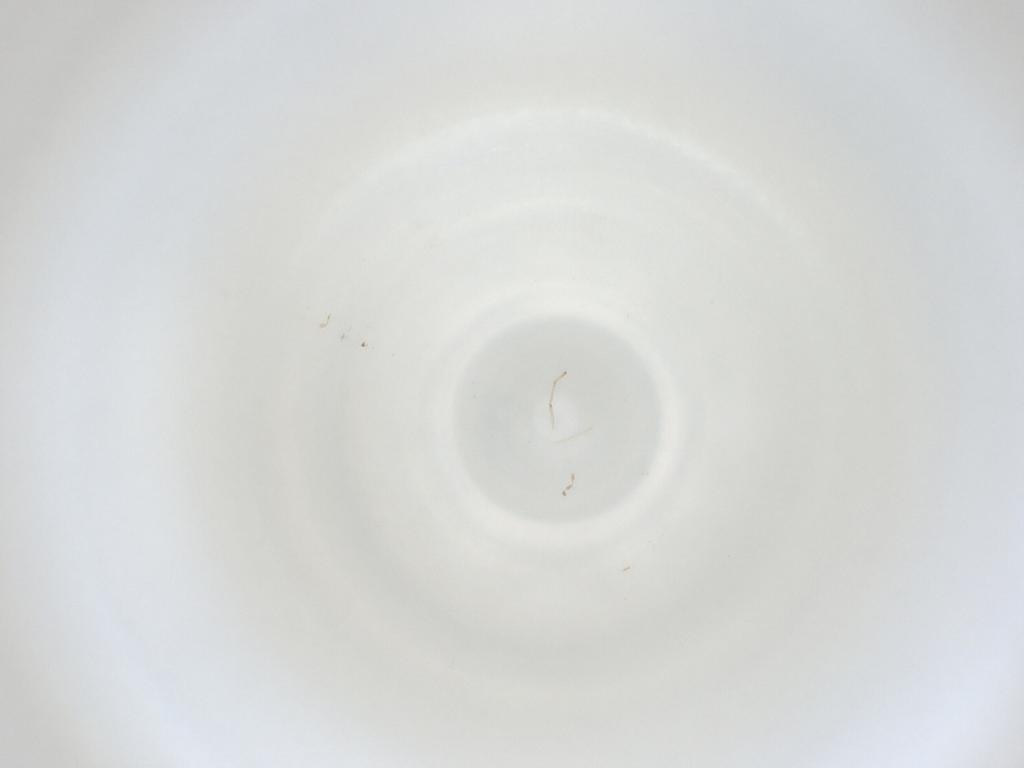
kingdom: Animalia
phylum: Arthropoda
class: Insecta
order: Diptera
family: Cecidomyiidae
